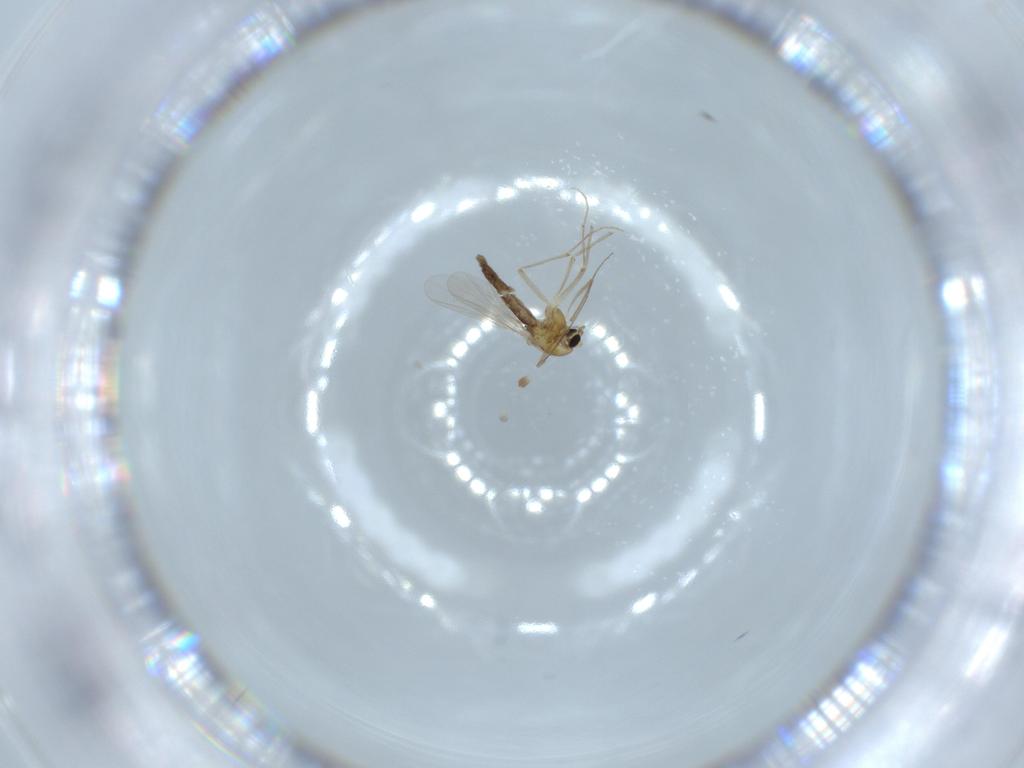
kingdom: Animalia
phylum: Arthropoda
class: Insecta
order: Diptera
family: Chironomidae
